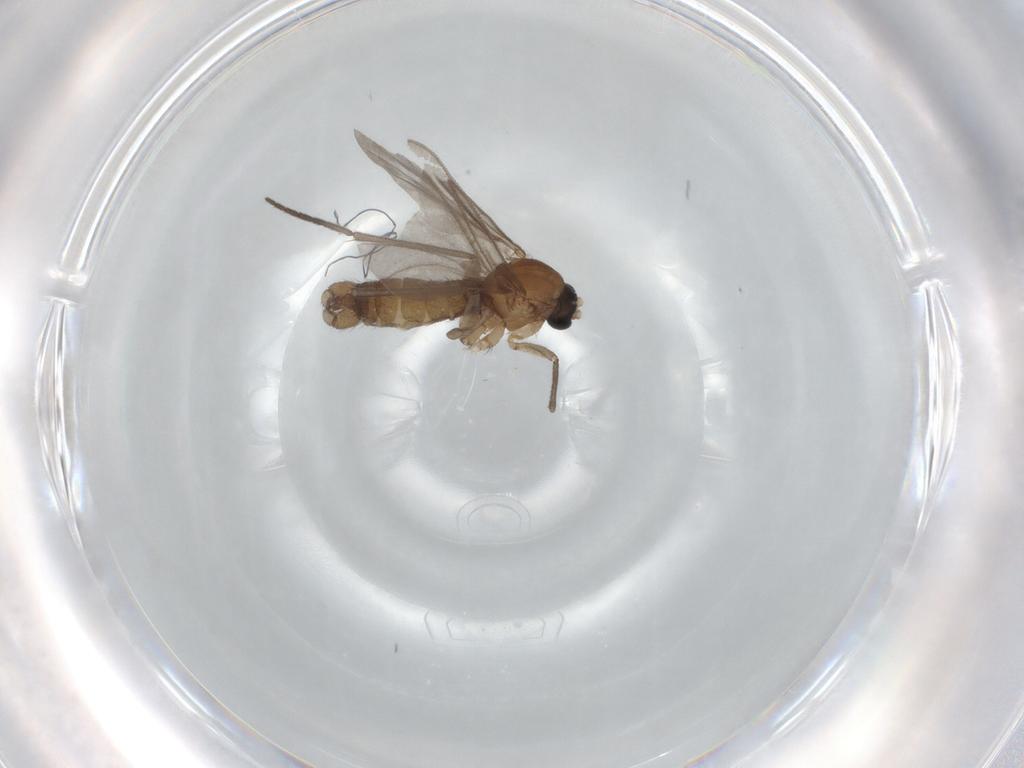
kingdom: Animalia
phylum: Arthropoda
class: Insecta
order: Diptera
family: Sciaridae
